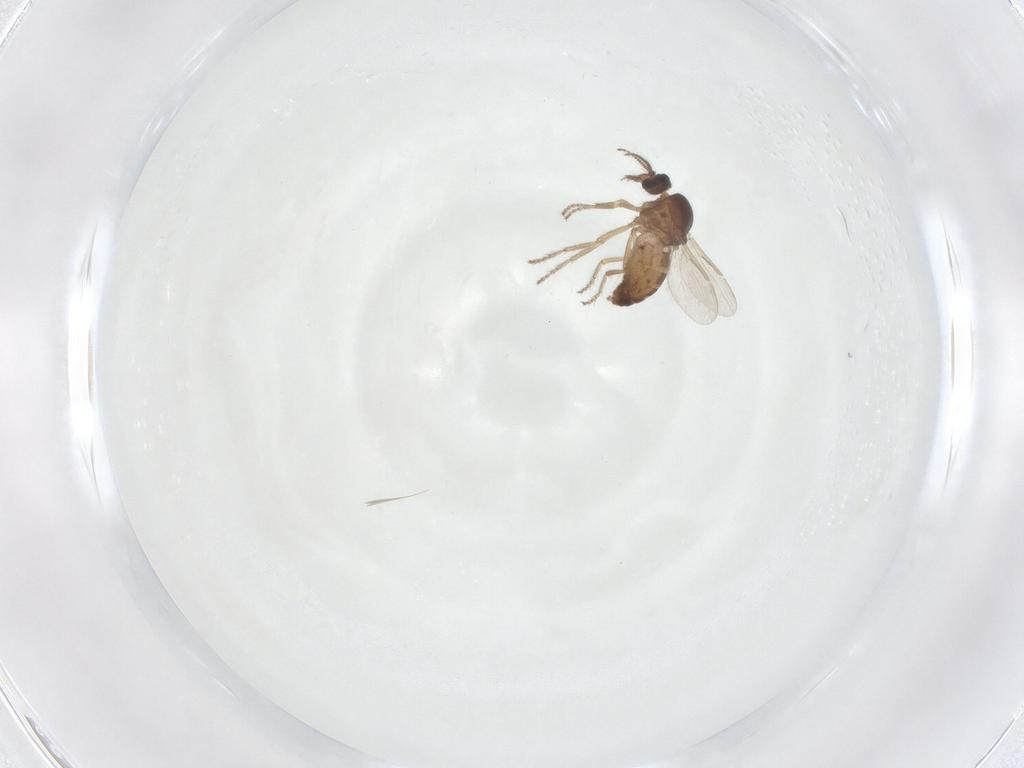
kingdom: Animalia
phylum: Arthropoda
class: Insecta
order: Diptera
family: Ceratopogonidae
